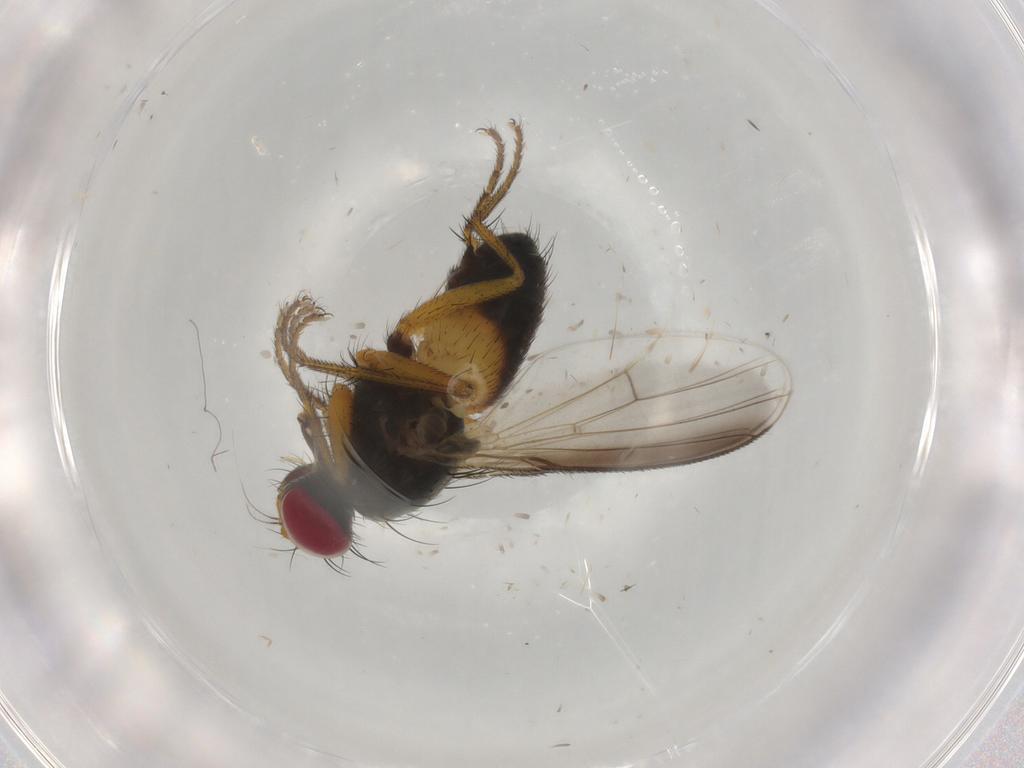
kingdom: Animalia
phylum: Arthropoda
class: Insecta
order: Diptera
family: Muscidae
